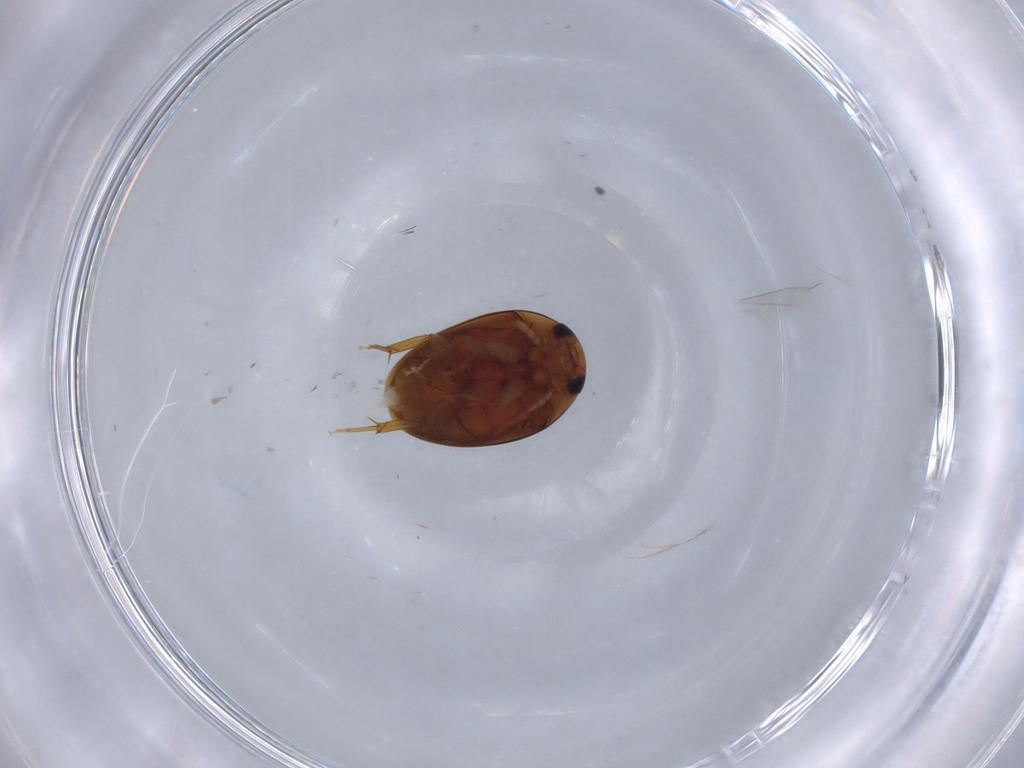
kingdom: Animalia
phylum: Arthropoda
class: Insecta
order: Coleoptera
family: Phalacridae
